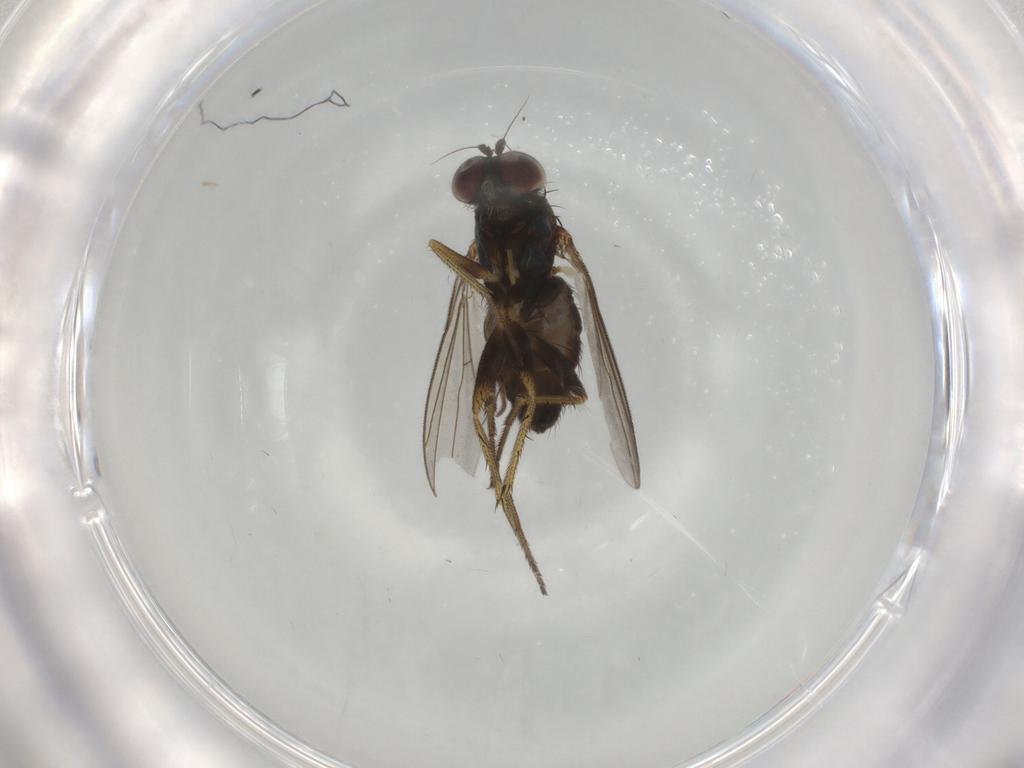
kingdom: Animalia
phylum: Arthropoda
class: Insecta
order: Diptera
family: Chironomidae
